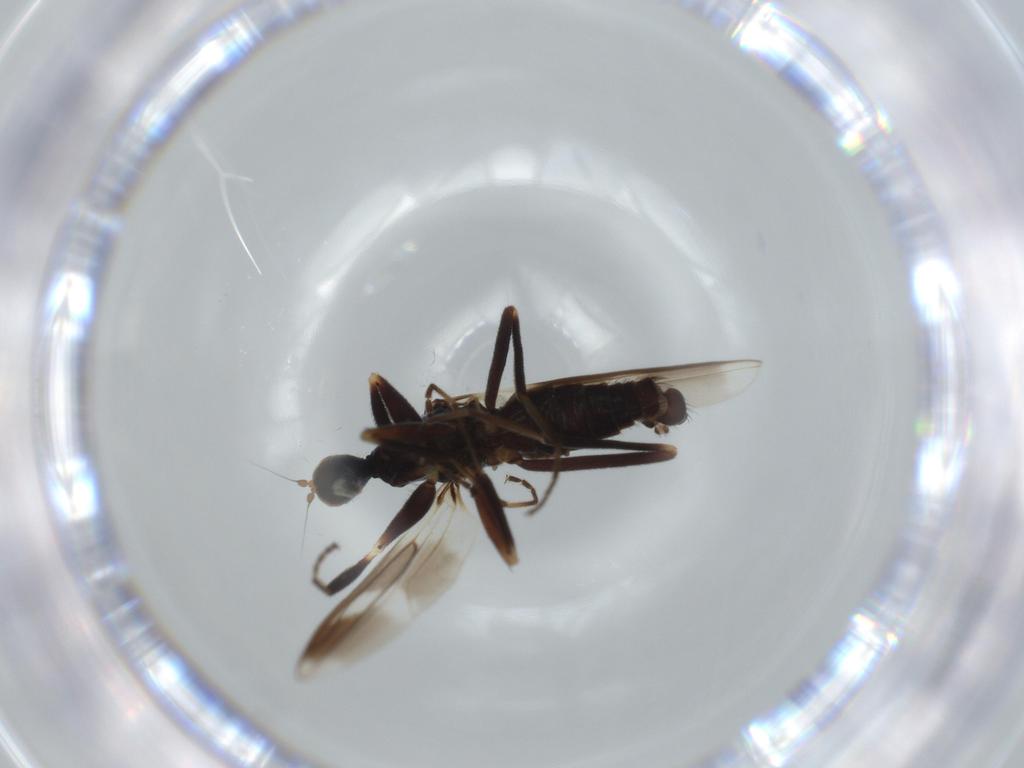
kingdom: Animalia
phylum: Arthropoda
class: Insecta
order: Diptera
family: Hybotidae
